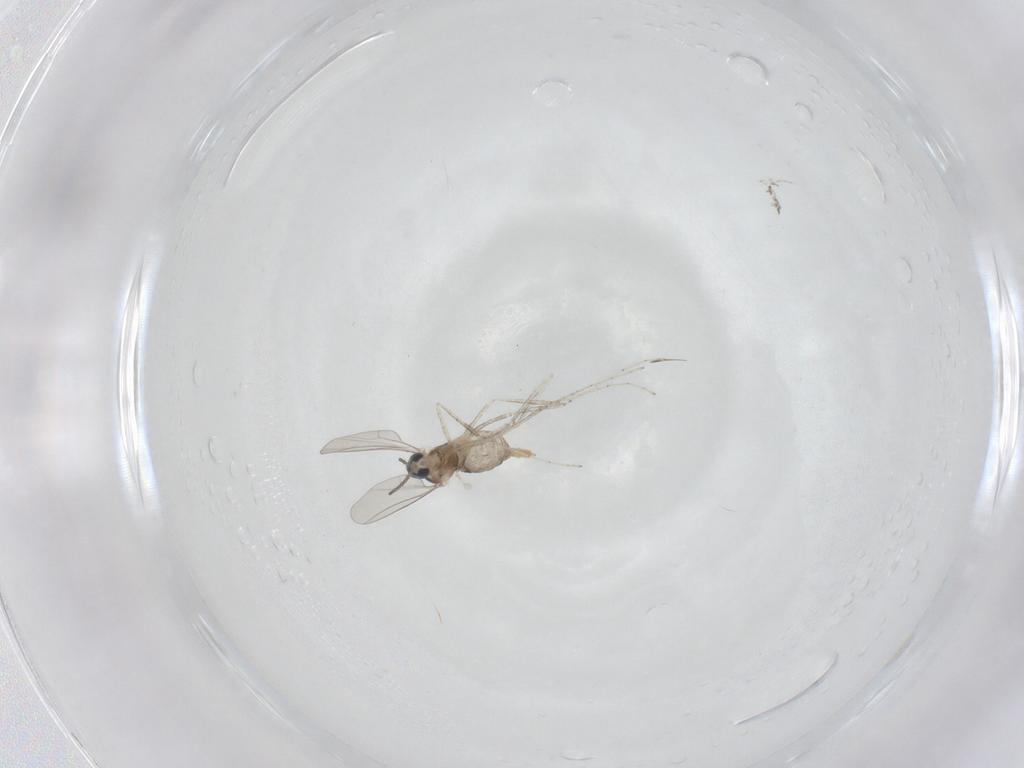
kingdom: Animalia
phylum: Arthropoda
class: Insecta
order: Diptera
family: Cecidomyiidae
